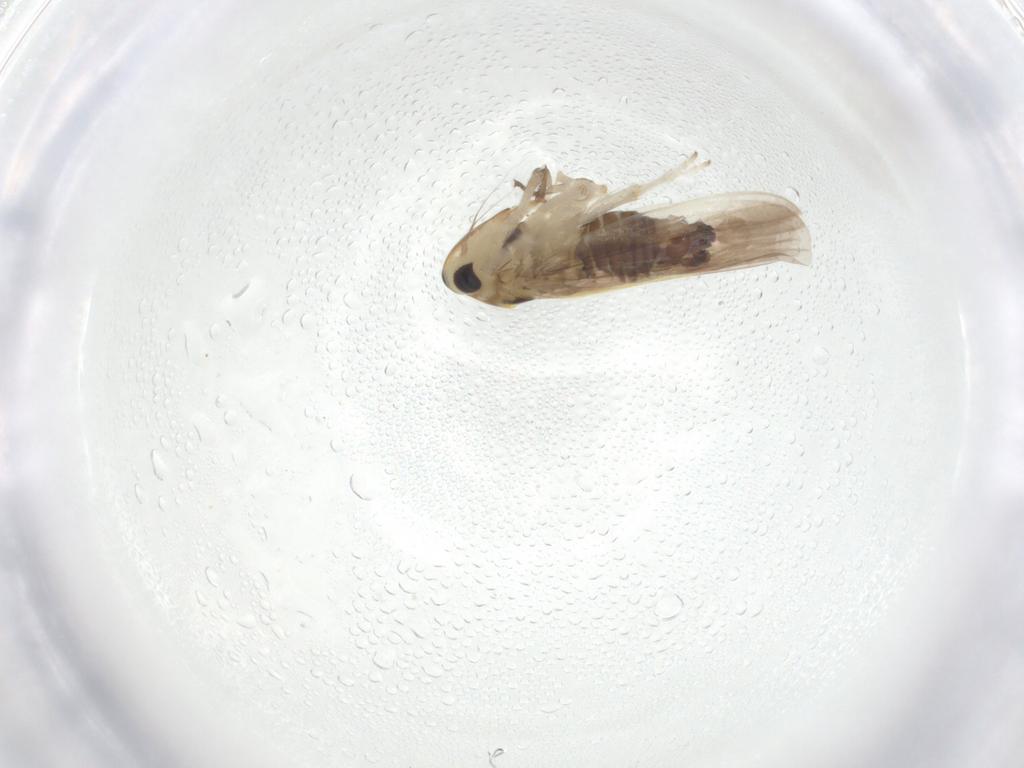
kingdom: Animalia
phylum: Arthropoda
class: Insecta
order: Hemiptera
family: Cicadellidae
